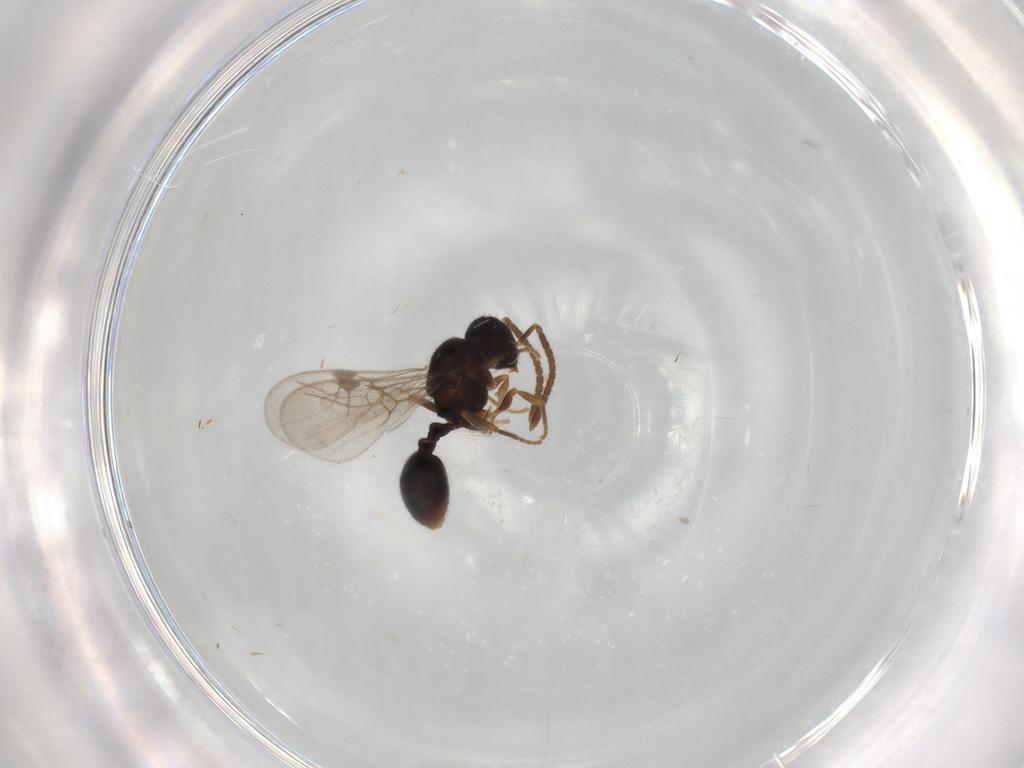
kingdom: Animalia
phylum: Arthropoda
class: Insecta
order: Hymenoptera
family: Formicidae
